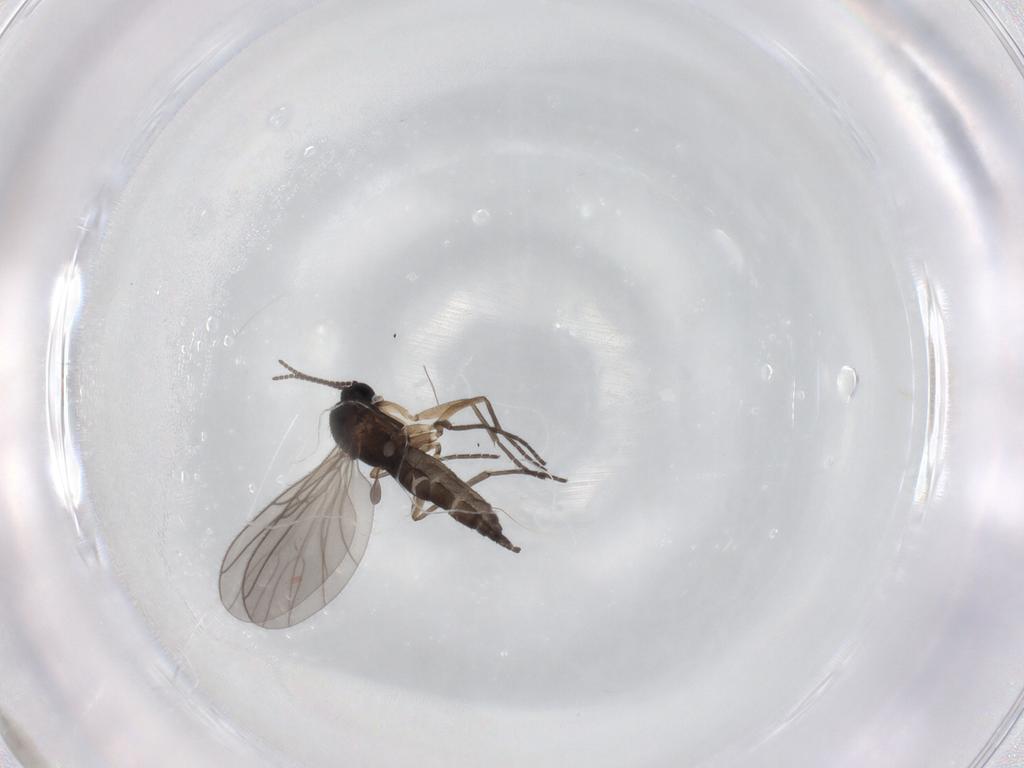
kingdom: Animalia
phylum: Arthropoda
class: Insecta
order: Diptera
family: Sciaridae
